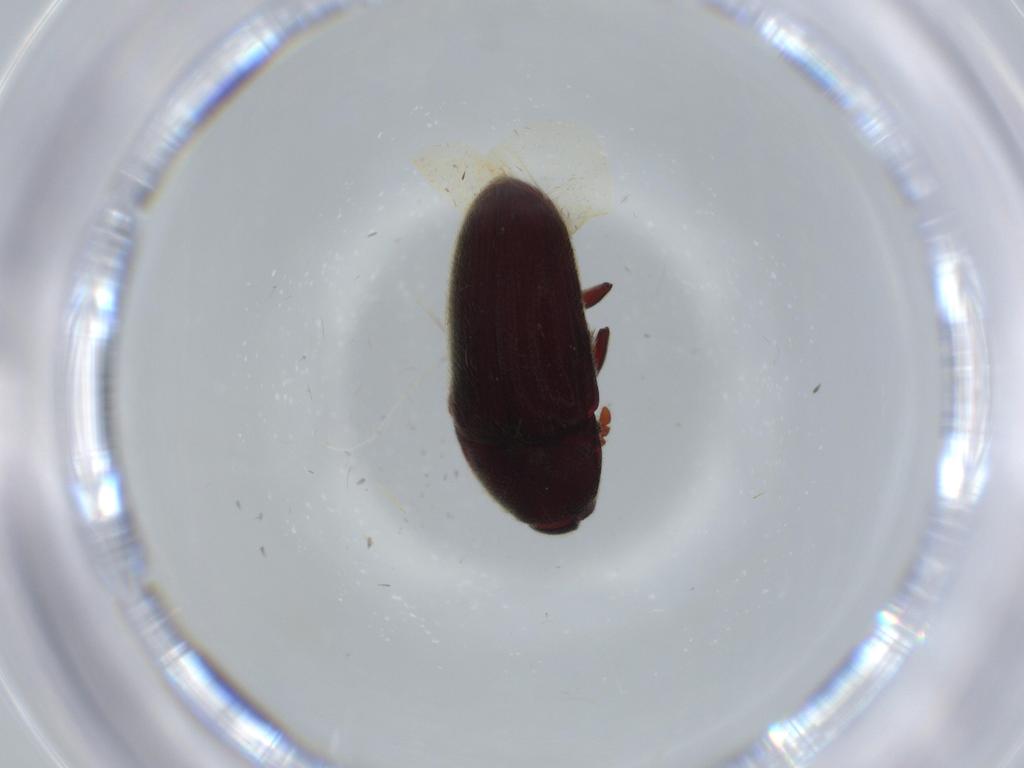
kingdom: Animalia
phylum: Arthropoda
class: Insecta
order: Coleoptera
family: Throscidae
